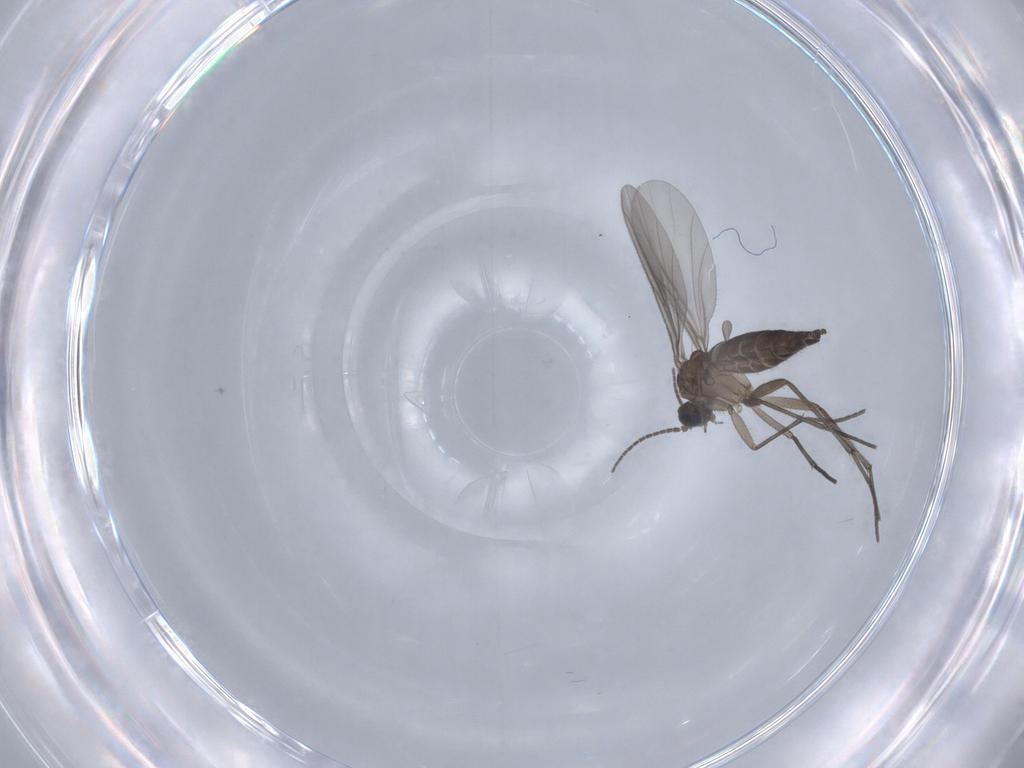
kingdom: Animalia
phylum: Arthropoda
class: Insecta
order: Diptera
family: Sciaridae
